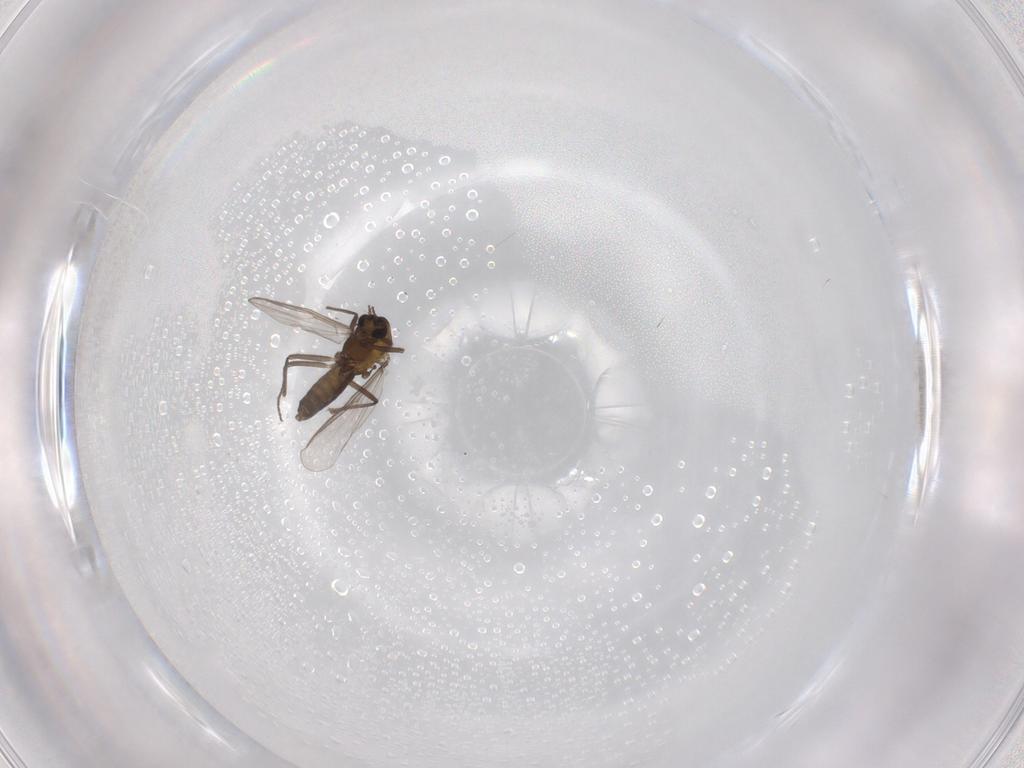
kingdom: Animalia
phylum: Arthropoda
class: Insecta
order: Diptera
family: Chironomidae
